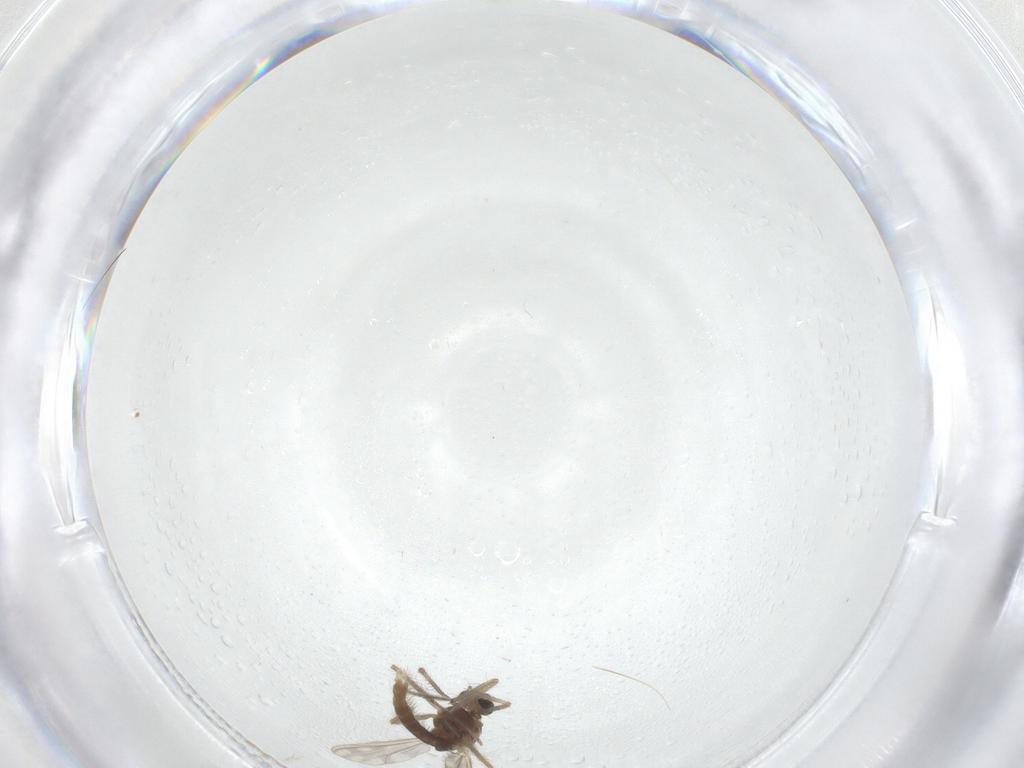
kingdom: Animalia
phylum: Arthropoda
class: Insecta
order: Diptera
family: Chironomidae
